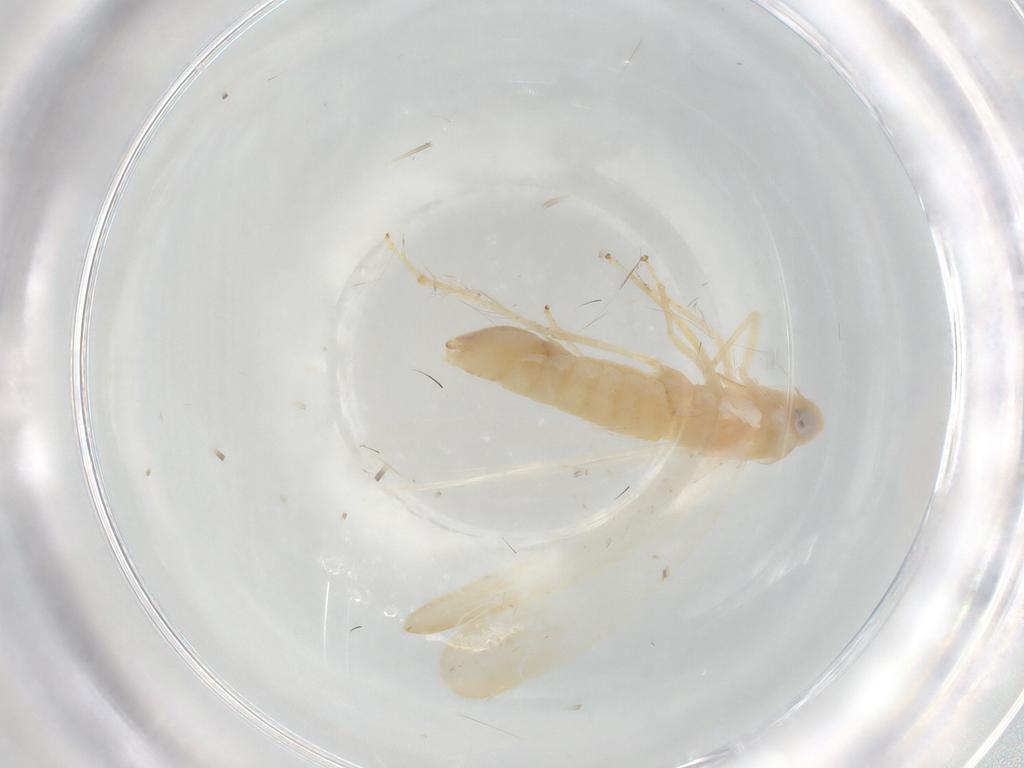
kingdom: Animalia
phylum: Arthropoda
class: Insecta
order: Hemiptera
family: Cicadellidae
